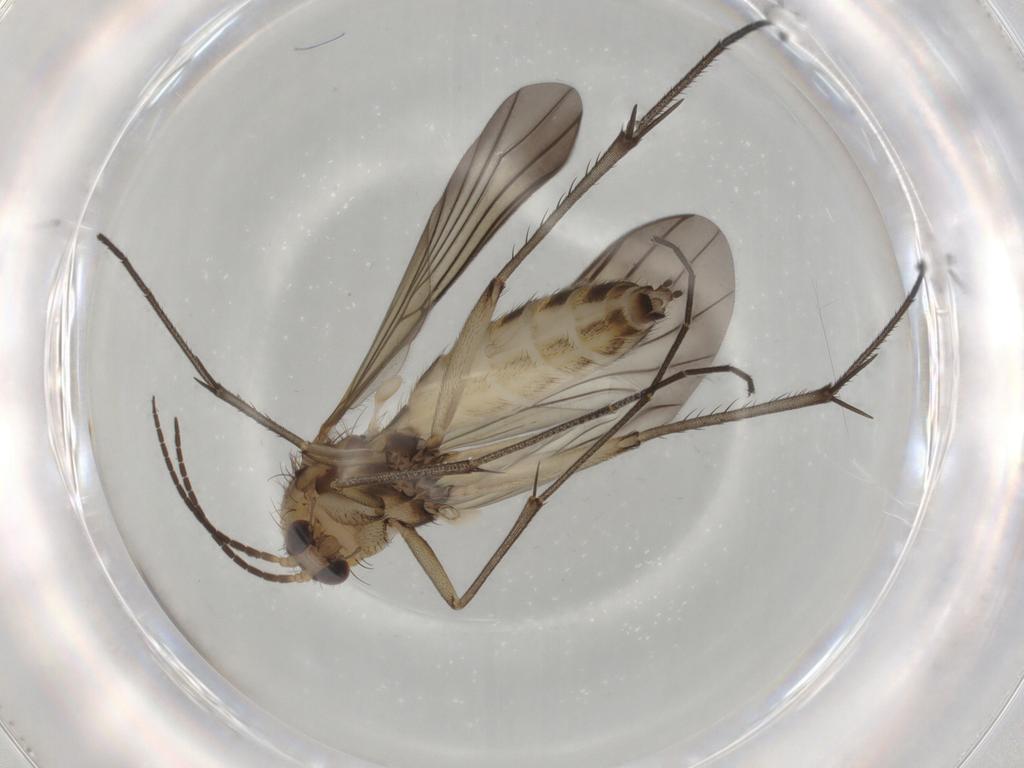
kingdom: Animalia
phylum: Arthropoda
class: Insecta
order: Diptera
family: Mycetophilidae
